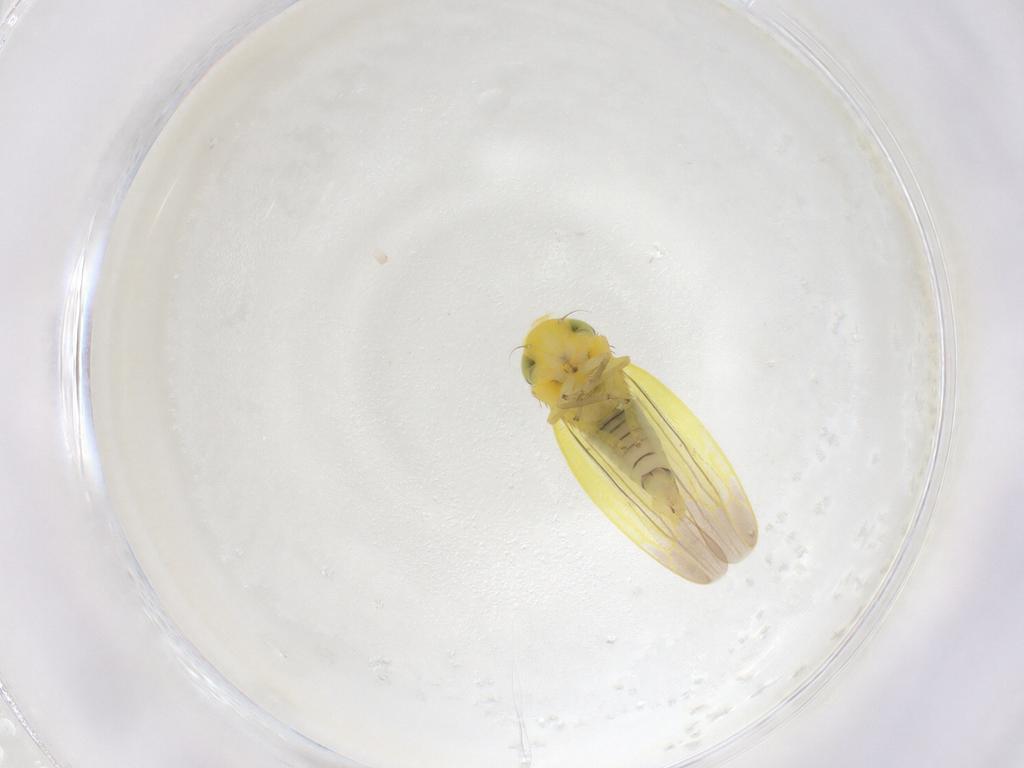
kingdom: Animalia
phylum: Arthropoda
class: Insecta
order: Hemiptera
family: Cicadellidae
